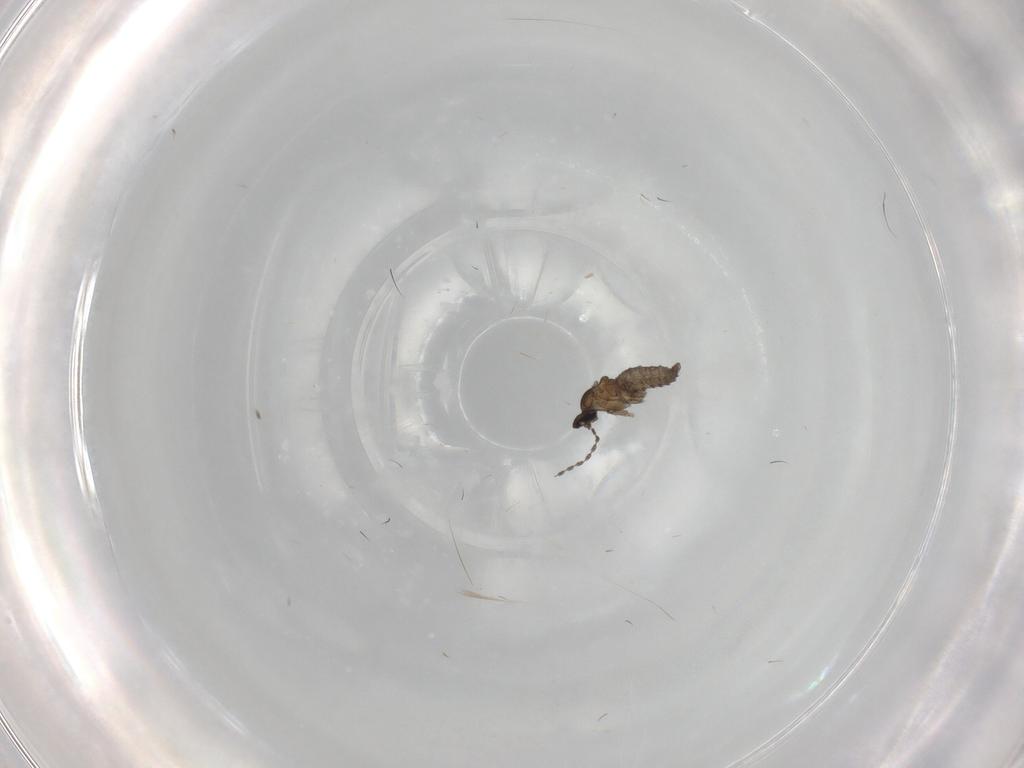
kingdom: Animalia
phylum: Arthropoda
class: Insecta
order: Diptera
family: Cecidomyiidae
